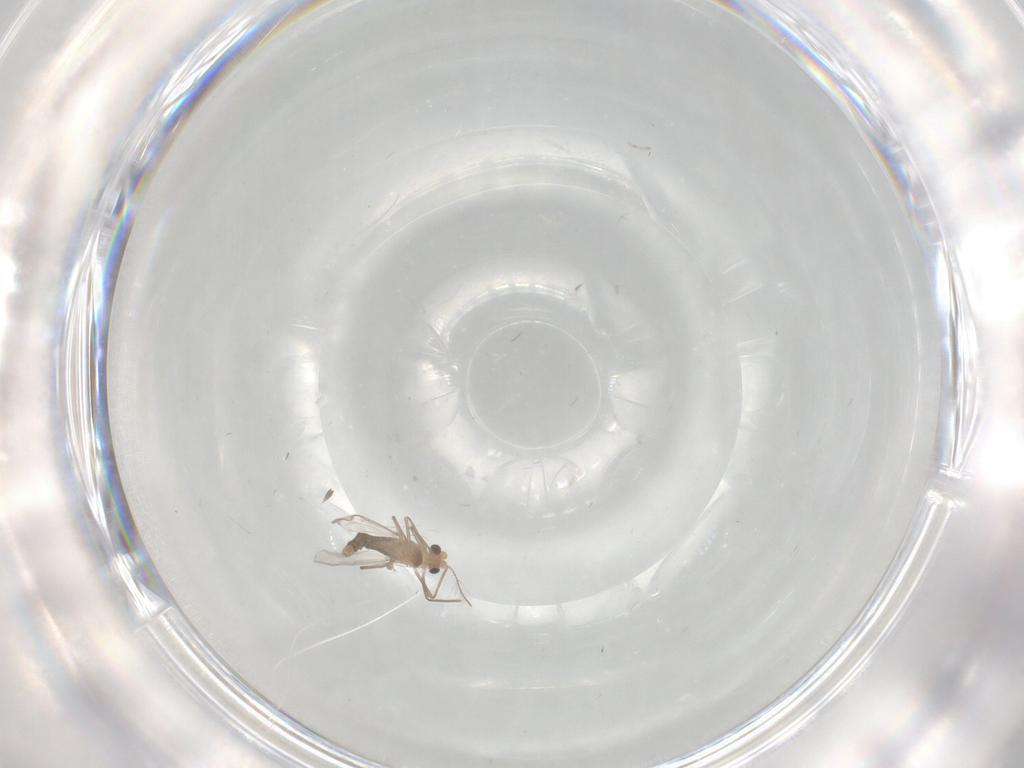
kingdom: Animalia
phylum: Arthropoda
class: Insecta
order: Diptera
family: Chironomidae
